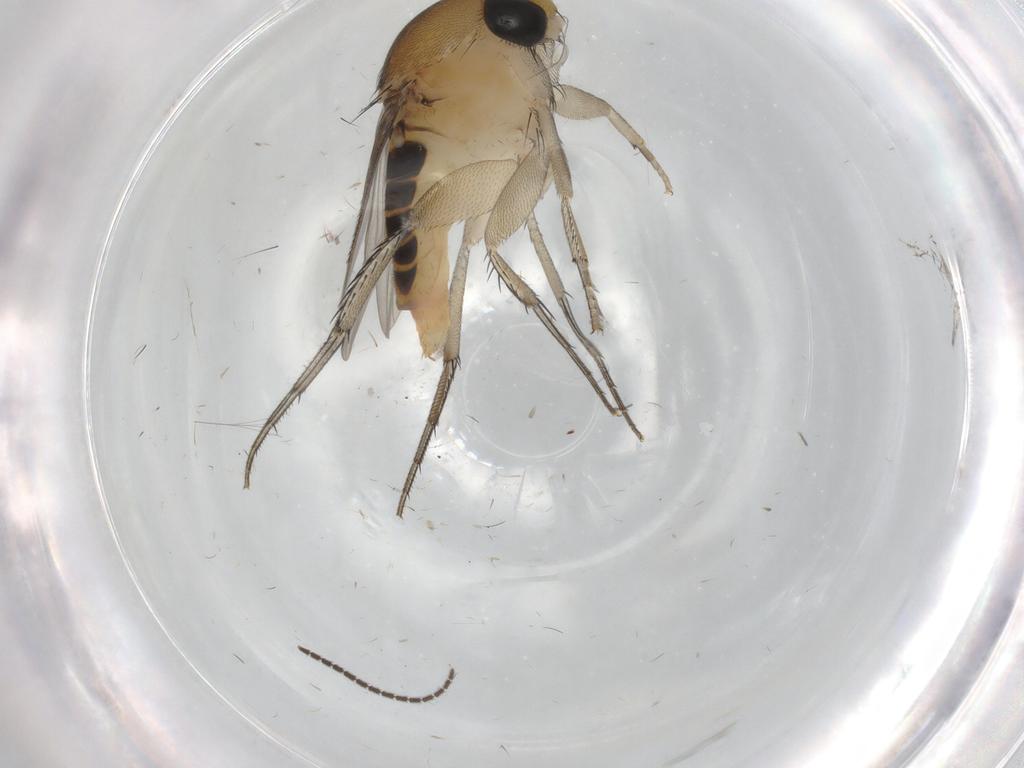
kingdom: Animalia
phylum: Arthropoda
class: Insecta
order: Diptera
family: Phoridae
